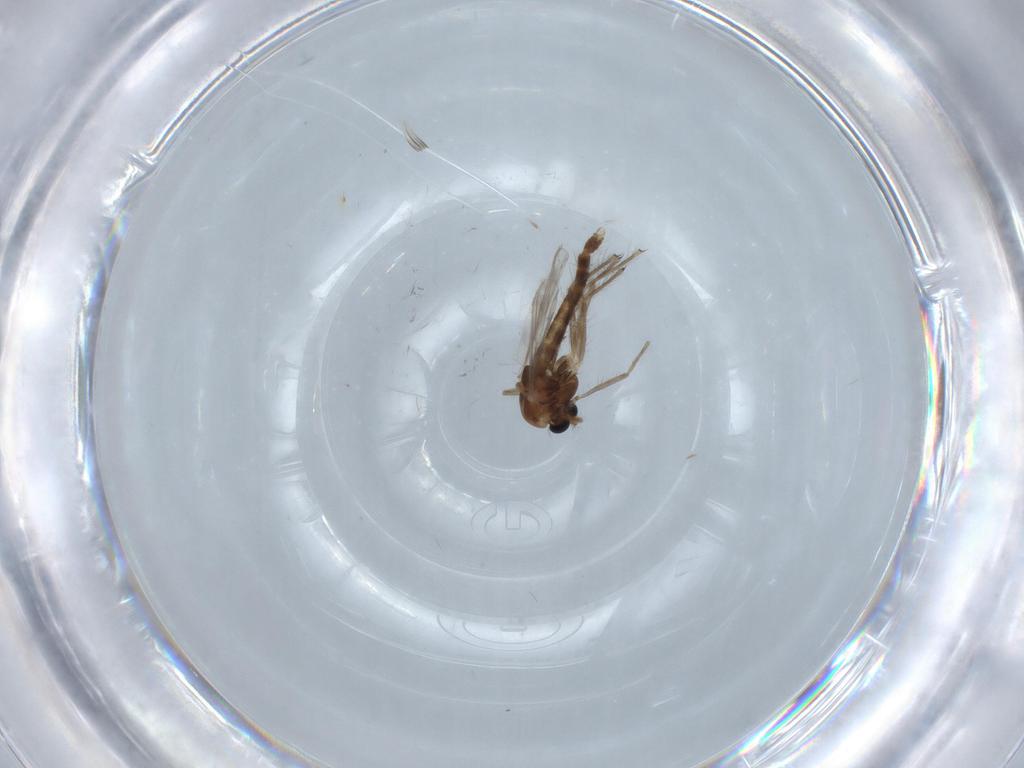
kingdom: Animalia
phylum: Arthropoda
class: Insecta
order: Diptera
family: Chironomidae
